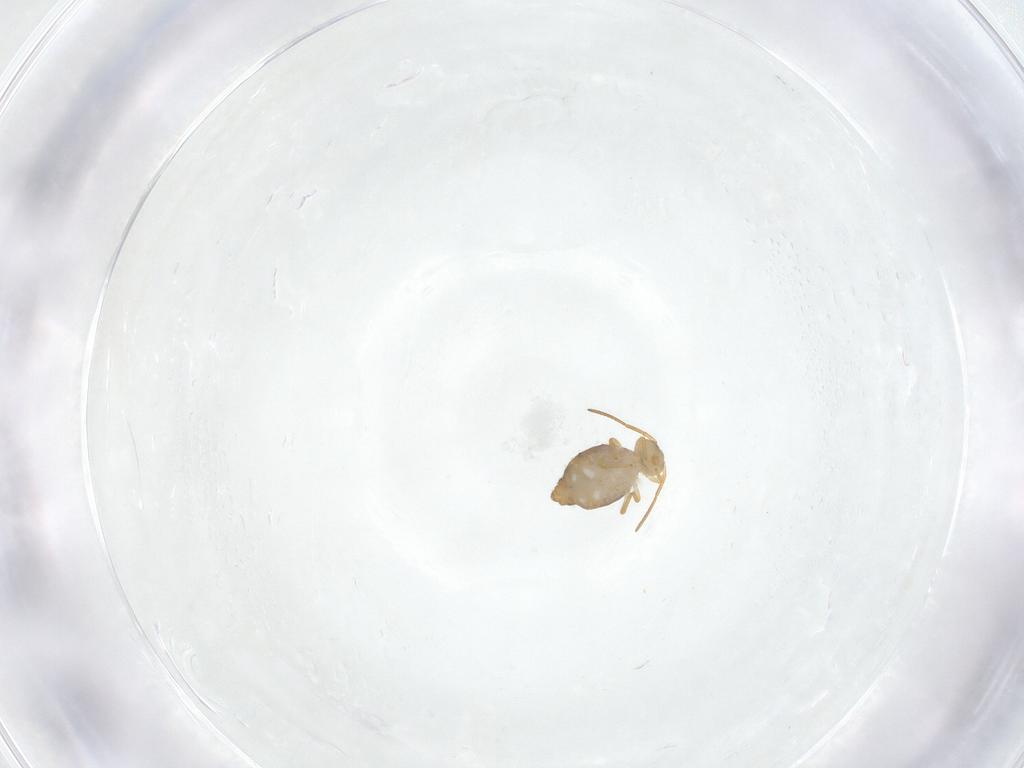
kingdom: Animalia
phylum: Arthropoda
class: Collembola
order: Symphypleona
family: Katiannidae
